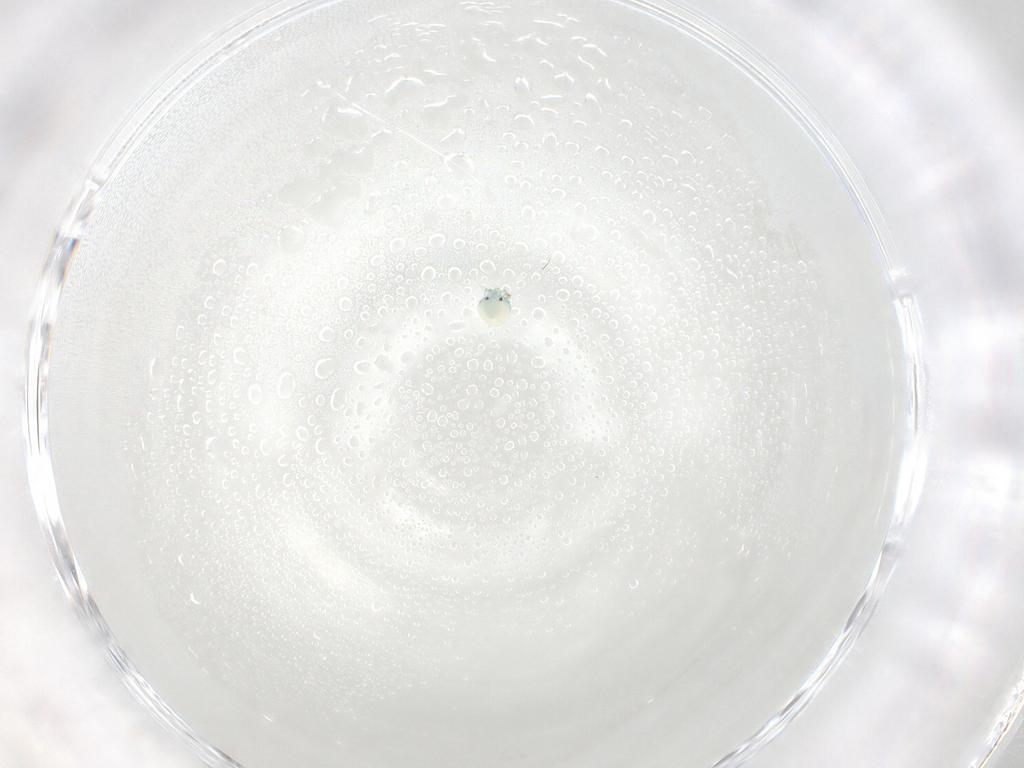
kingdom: Animalia
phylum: Arthropoda
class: Arachnida
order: Trombidiformes
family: Arrenuridae
